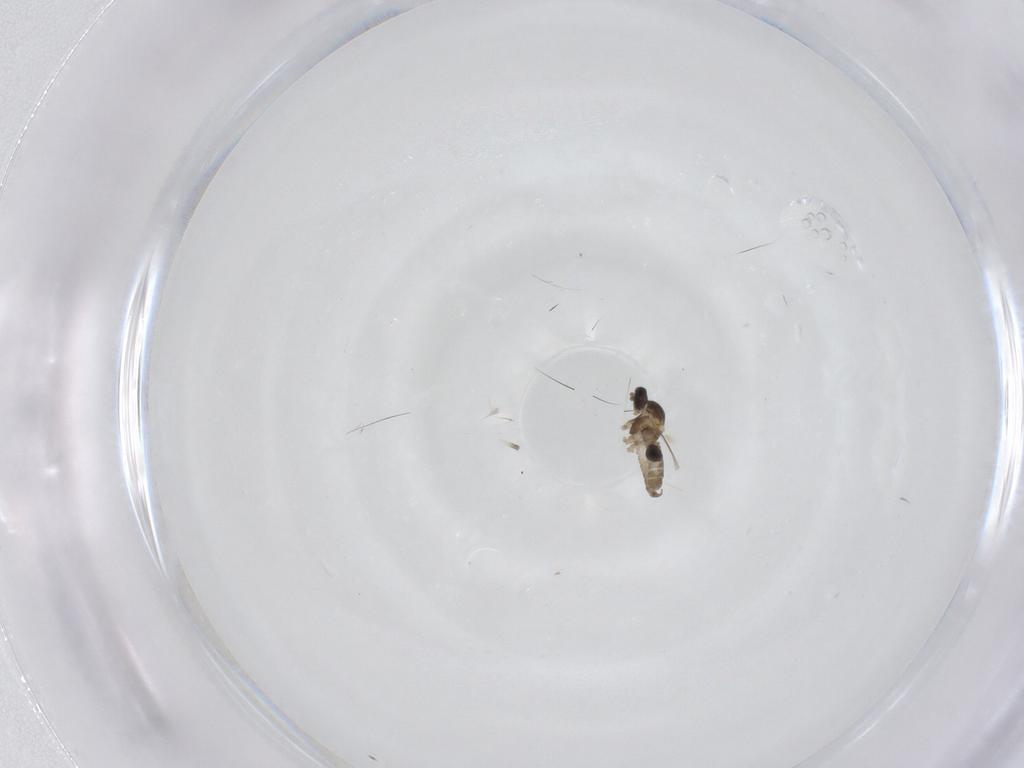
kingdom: Animalia
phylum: Arthropoda
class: Insecta
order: Diptera
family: Cecidomyiidae
